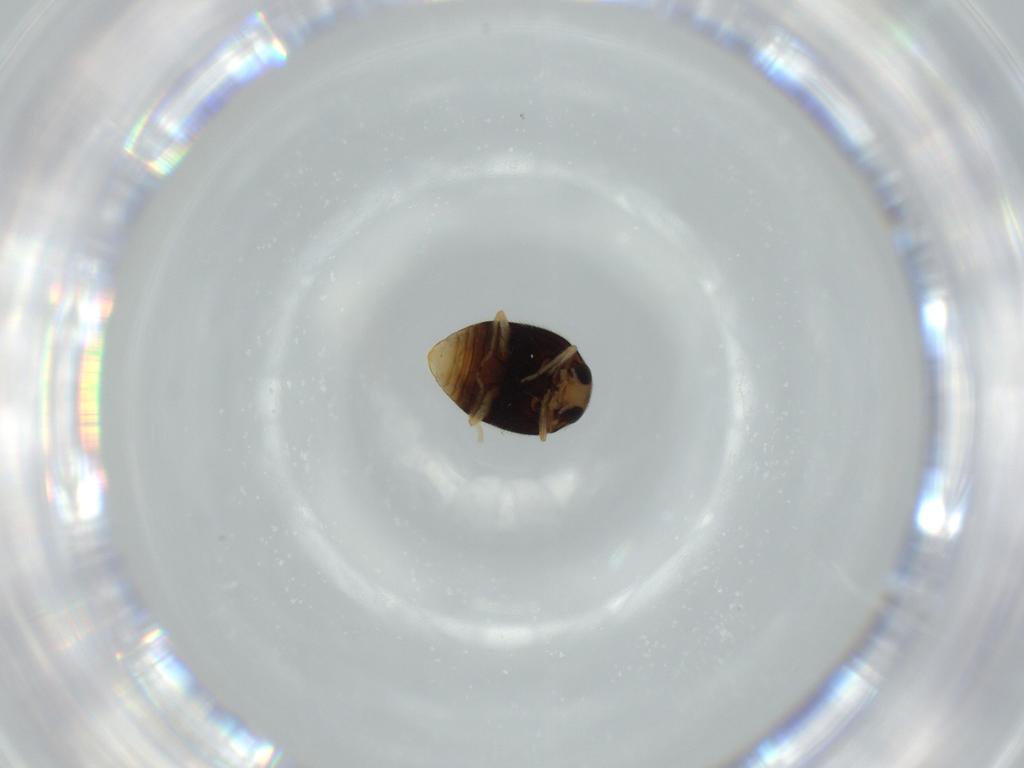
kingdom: Animalia
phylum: Arthropoda
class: Insecta
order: Coleoptera
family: Coccinellidae
